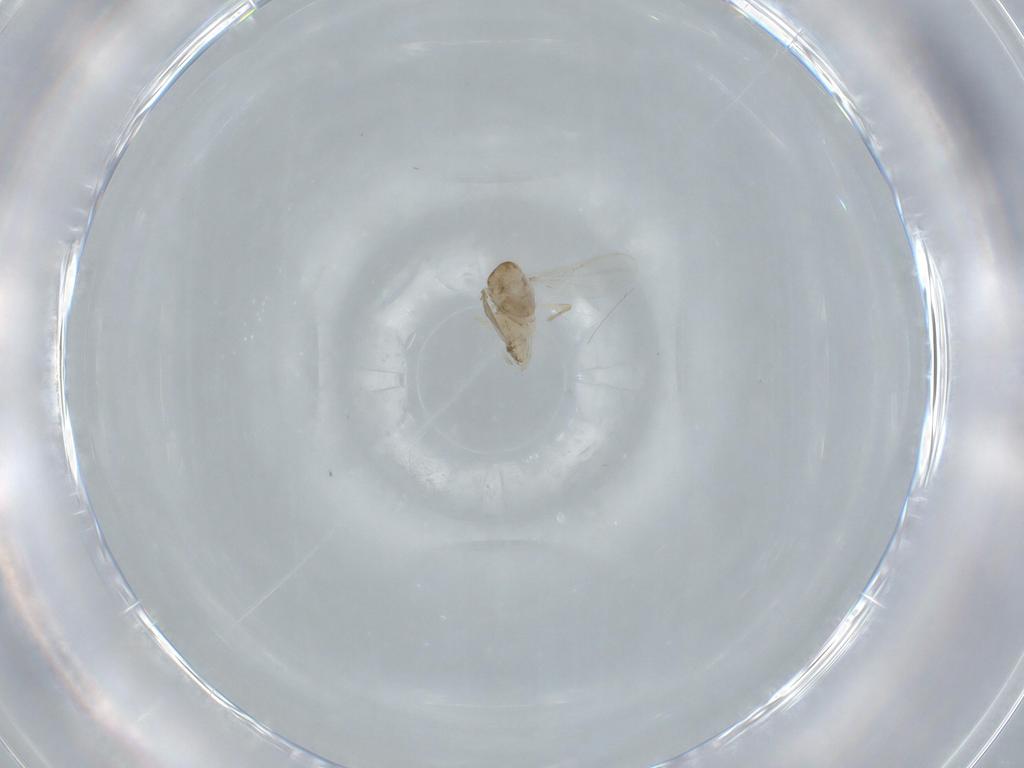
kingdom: Animalia
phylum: Arthropoda
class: Insecta
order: Diptera
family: Chironomidae
